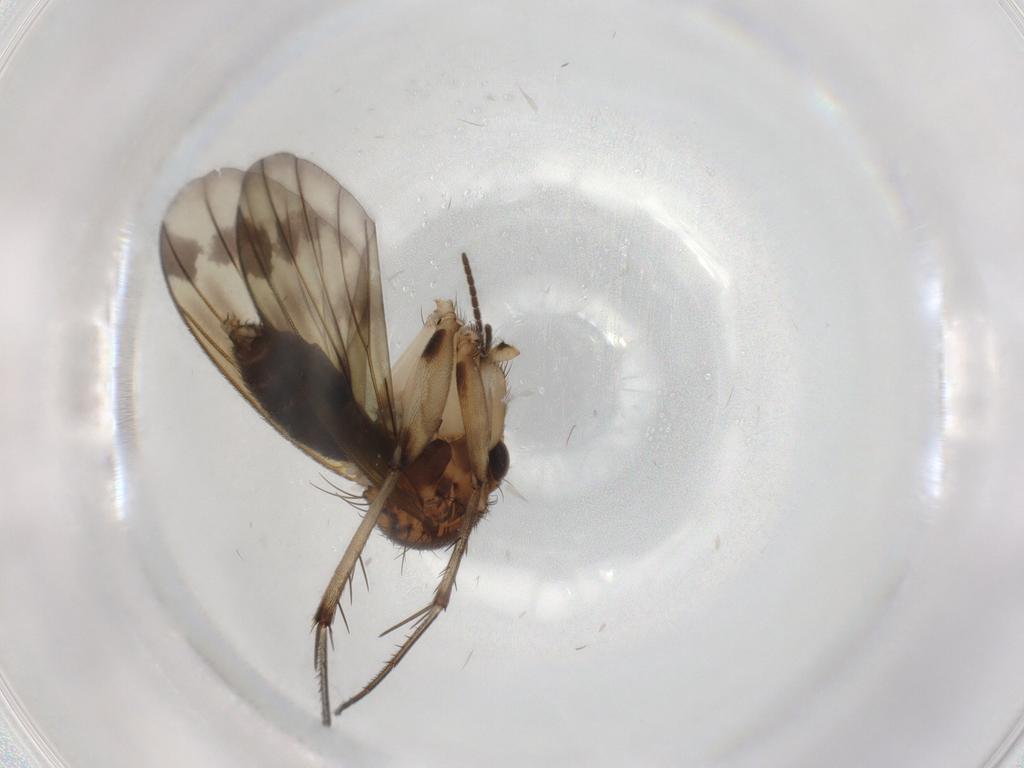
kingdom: Animalia
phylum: Arthropoda
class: Insecta
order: Diptera
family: Mycetophilidae
